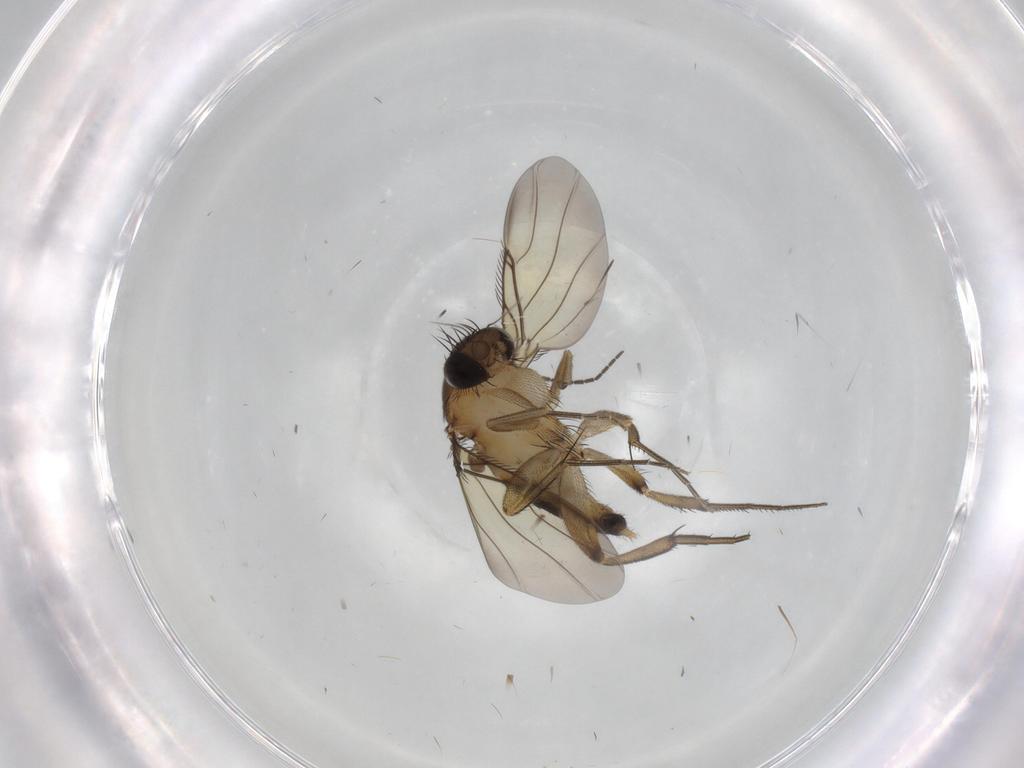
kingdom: Animalia
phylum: Arthropoda
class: Insecta
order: Diptera
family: Phoridae
